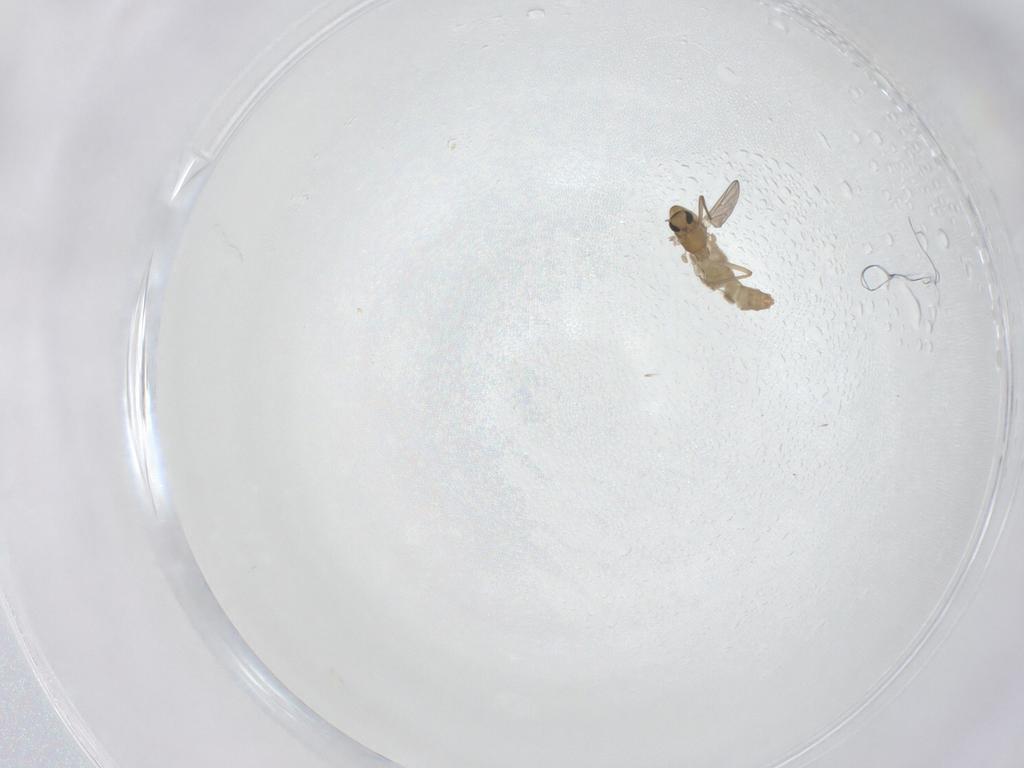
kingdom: Animalia
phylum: Arthropoda
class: Insecta
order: Diptera
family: Chironomidae
